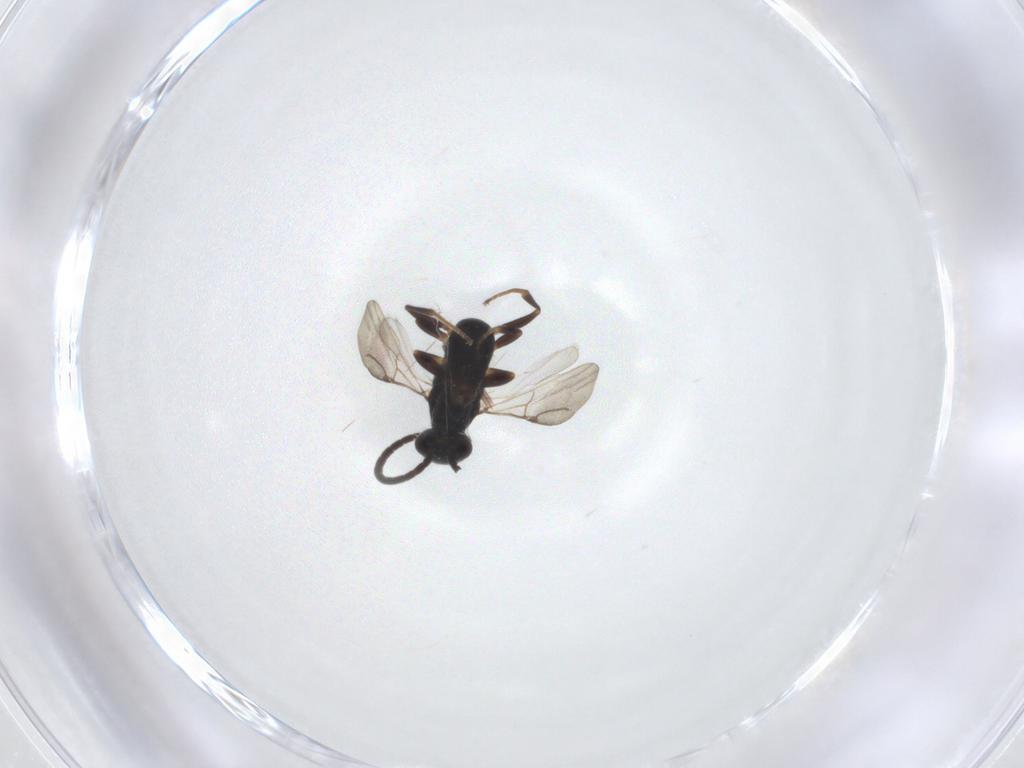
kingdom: Animalia
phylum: Arthropoda
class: Insecta
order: Hymenoptera
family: Bethylidae
